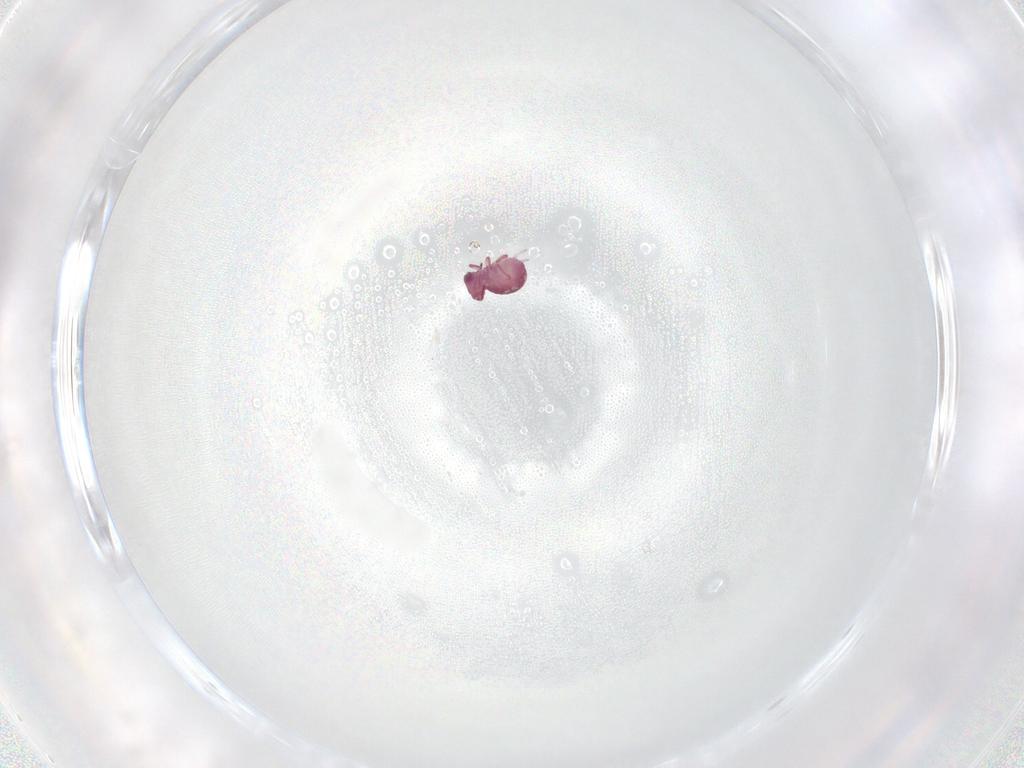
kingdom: Animalia
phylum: Arthropoda
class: Collembola
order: Symphypleona
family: Sminthurididae
